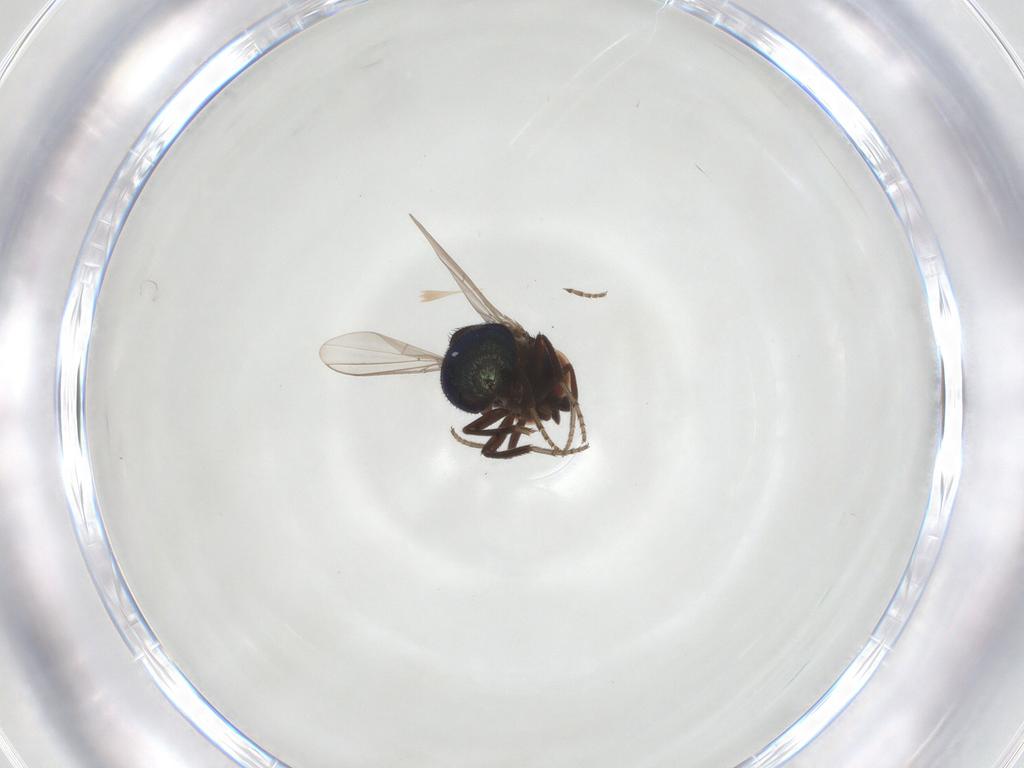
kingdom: Animalia
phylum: Arthropoda
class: Insecta
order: Diptera
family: Cryptochetidae
